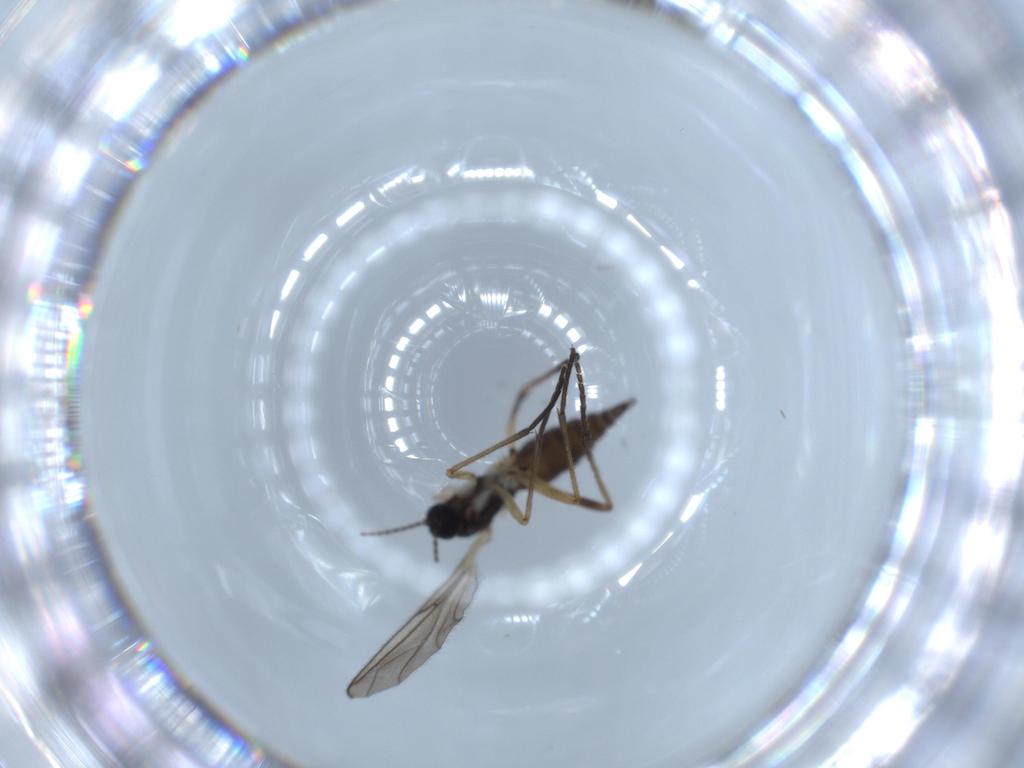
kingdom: Animalia
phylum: Arthropoda
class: Insecta
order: Diptera
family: Sciaridae
